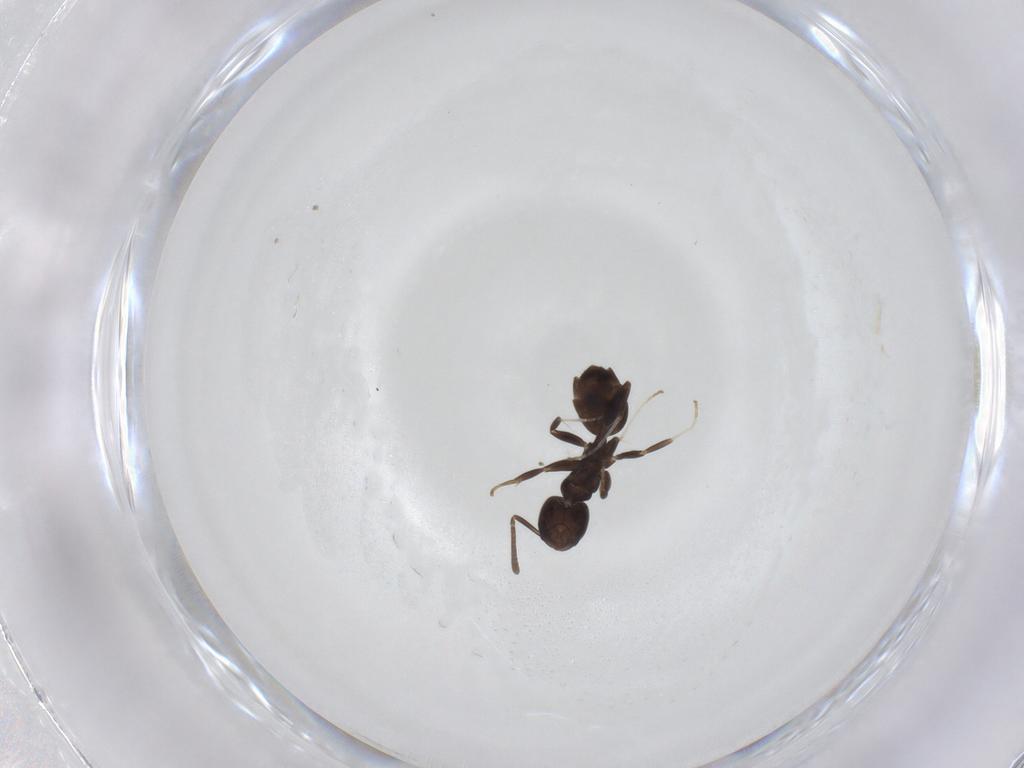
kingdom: Animalia
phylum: Arthropoda
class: Insecta
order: Hymenoptera
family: Formicidae
